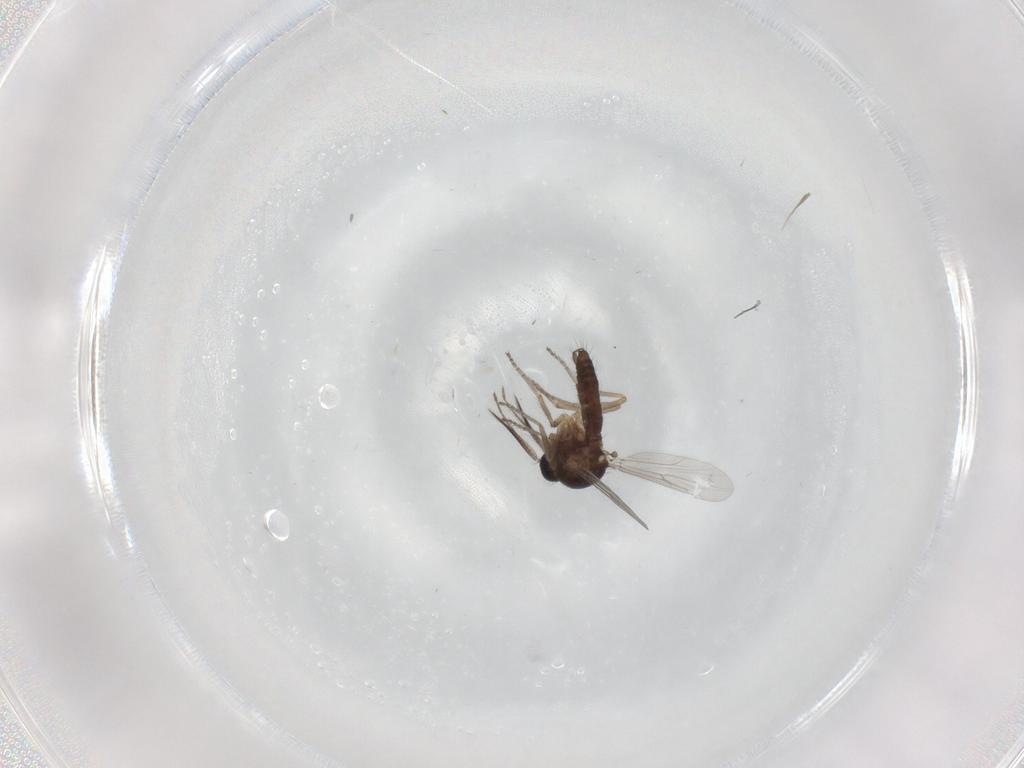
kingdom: Animalia
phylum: Arthropoda
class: Insecta
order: Diptera
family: Ceratopogonidae
